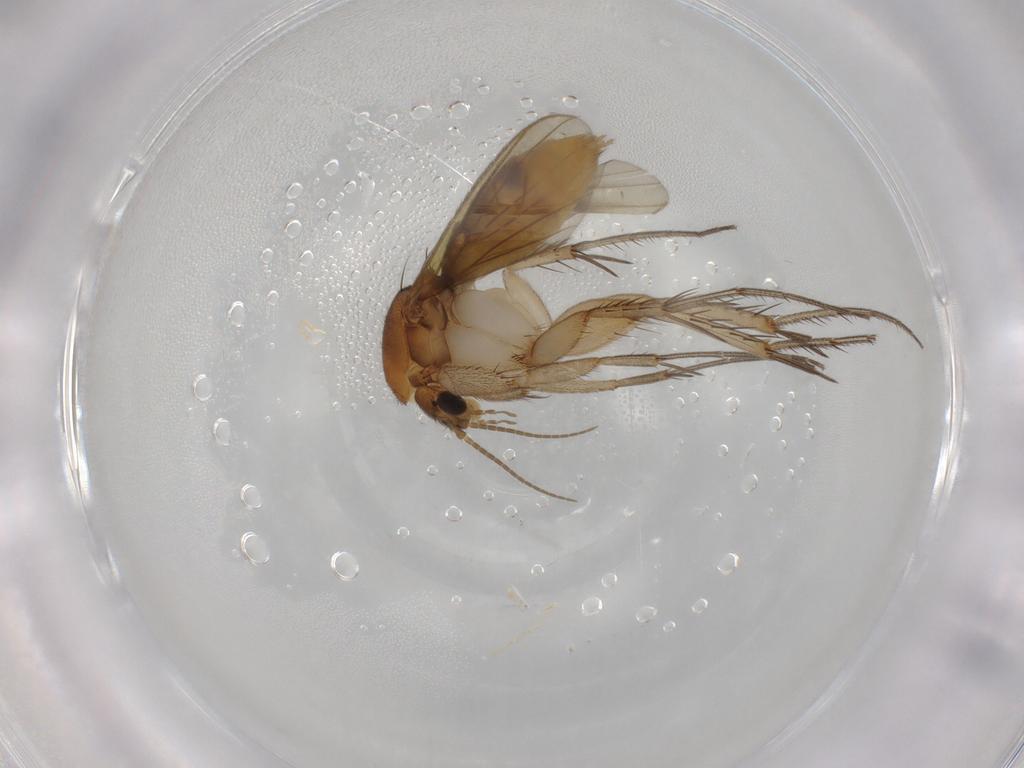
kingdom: Animalia
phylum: Arthropoda
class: Insecta
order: Diptera
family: Mycetophilidae
